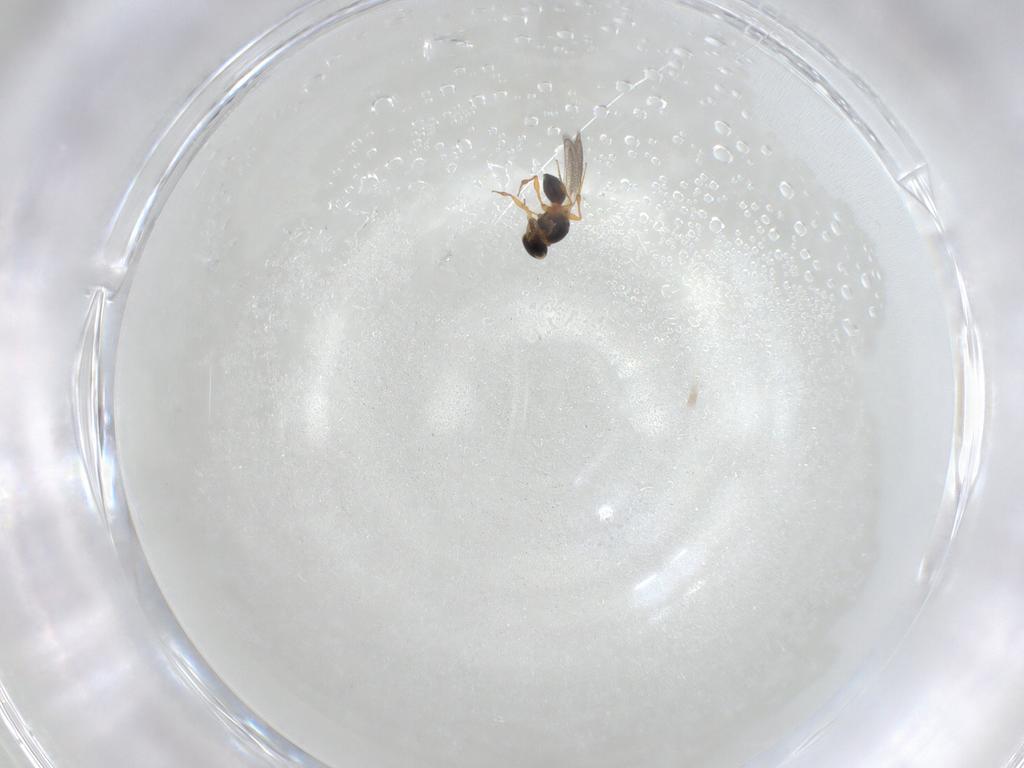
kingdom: Animalia
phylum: Arthropoda
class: Insecta
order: Hymenoptera
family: Platygastridae
